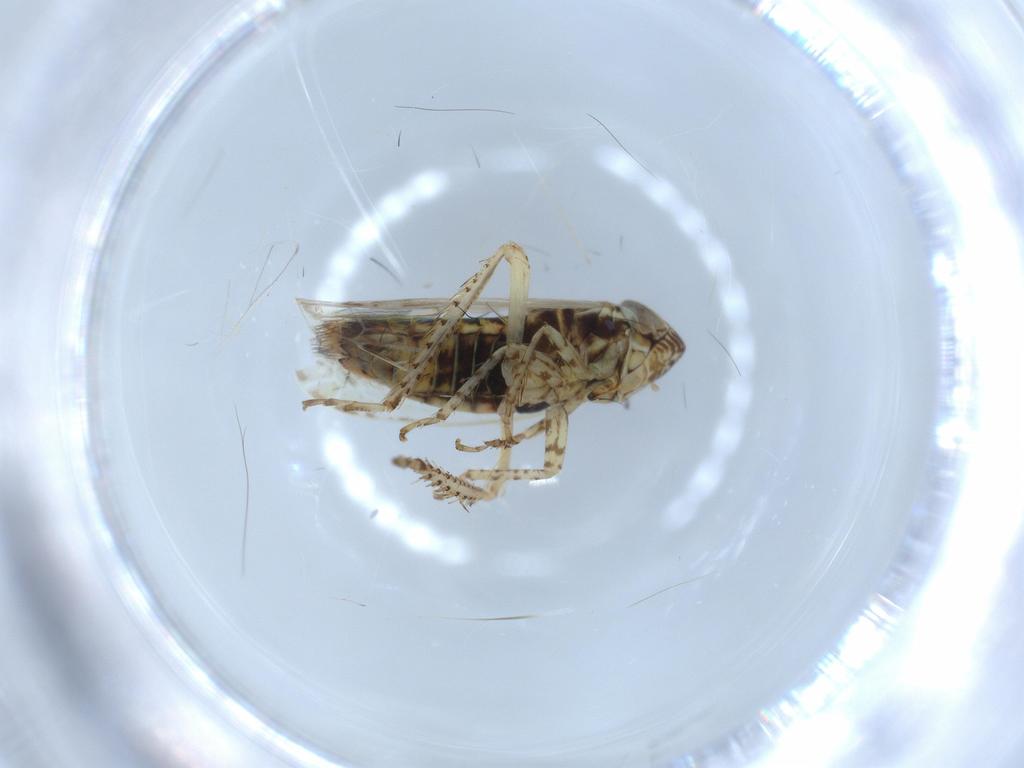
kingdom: Animalia
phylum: Arthropoda
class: Insecta
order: Hemiptera
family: Cicadellidae
